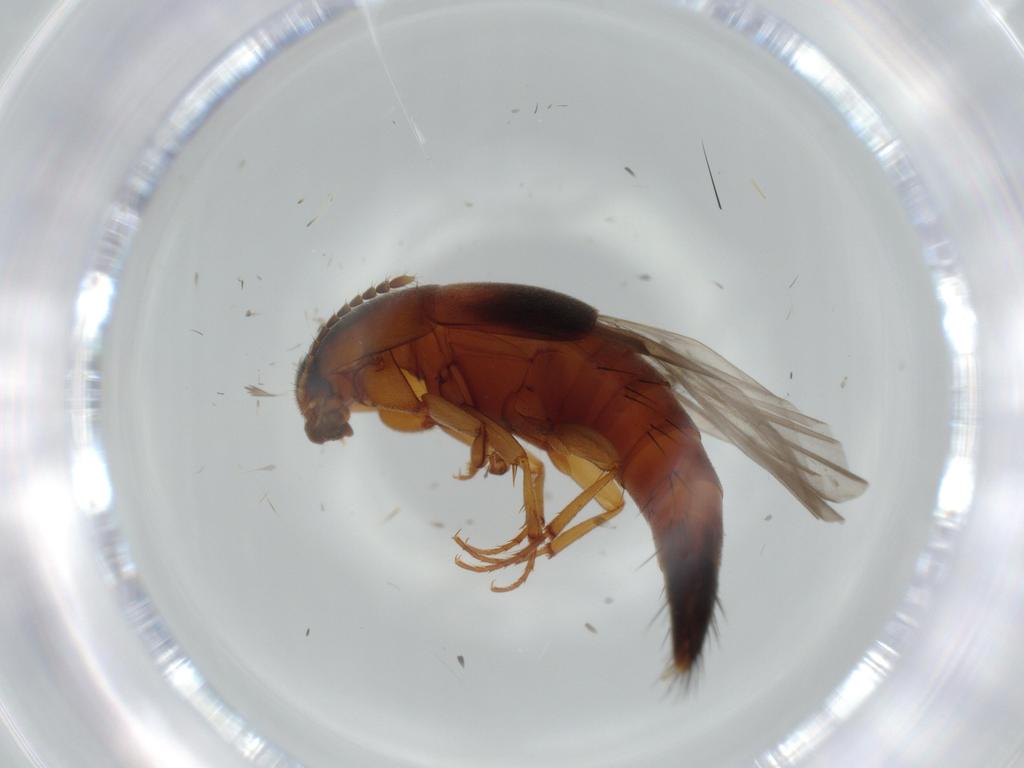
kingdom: Animalia
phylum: Arthropoda
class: Insecta
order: Coleoptera
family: Staphylinidae
